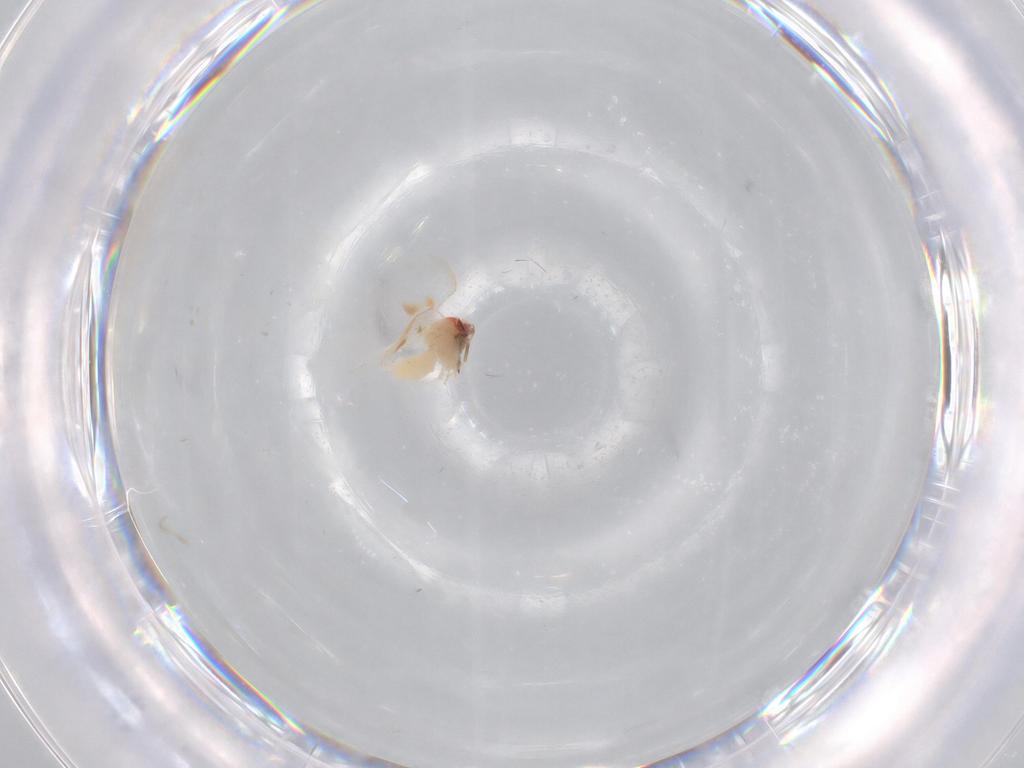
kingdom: Animalia
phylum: Arthropoda
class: Insecta
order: Hemiptera
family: Aleyrodidae
